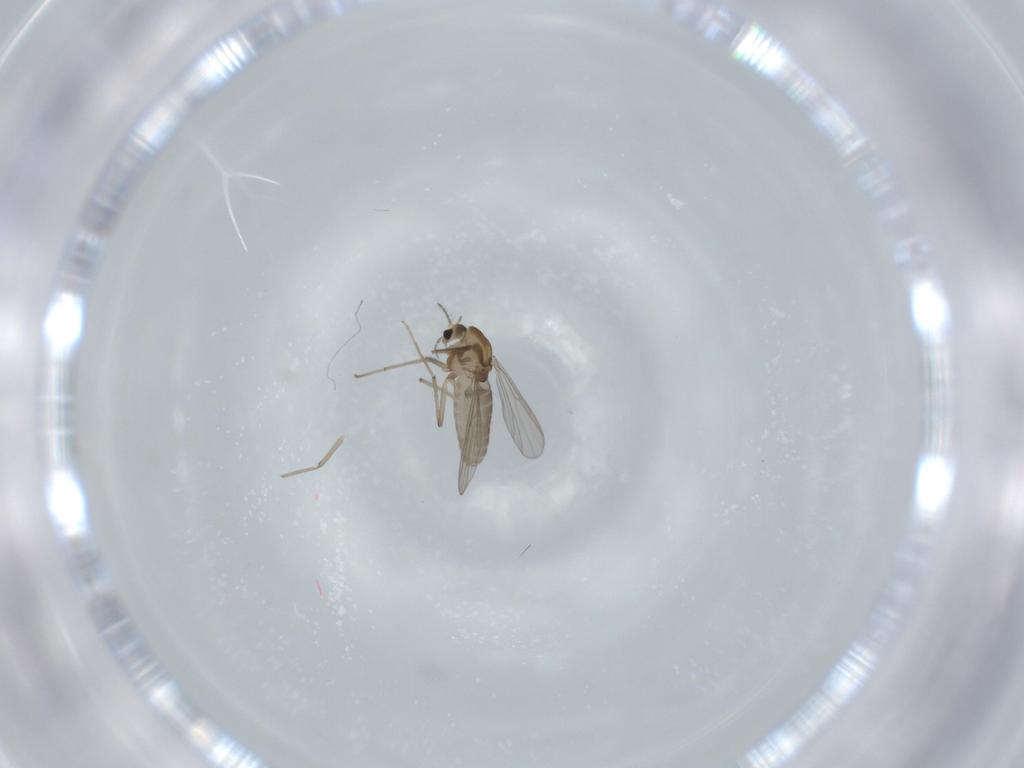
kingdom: Animalia
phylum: Arthropoda
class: Insecta
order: Diptera
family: Chironomidae
